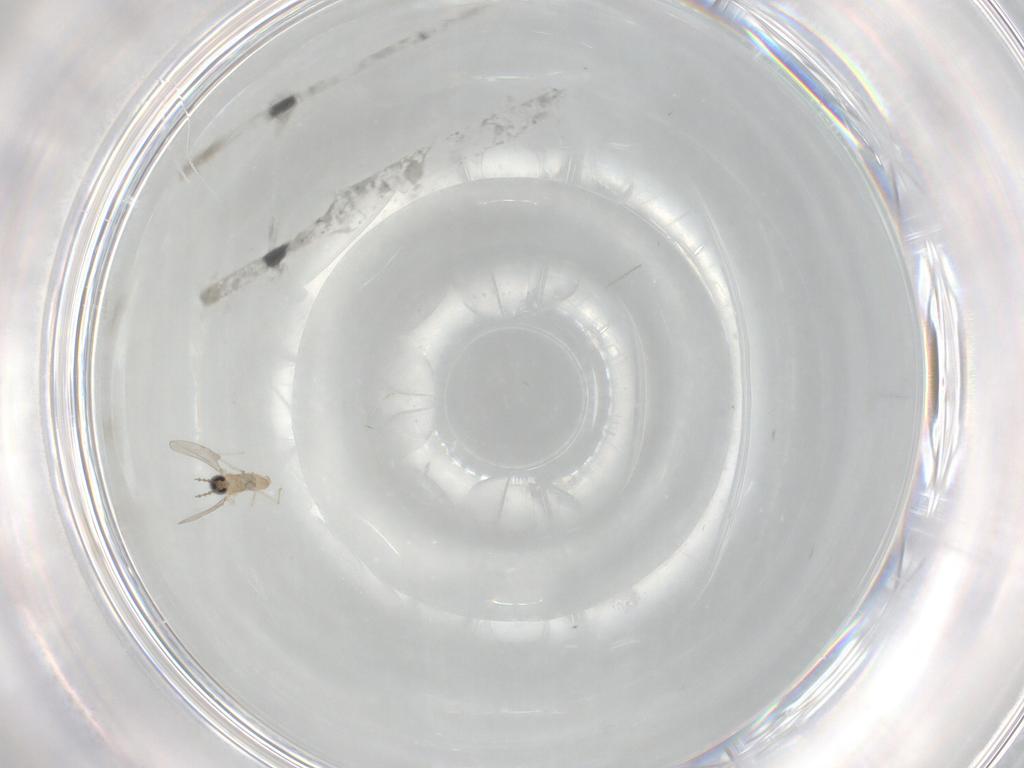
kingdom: Animalia
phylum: Arthropoda
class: Insecta
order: Diptera
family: Cecidomyiidae
